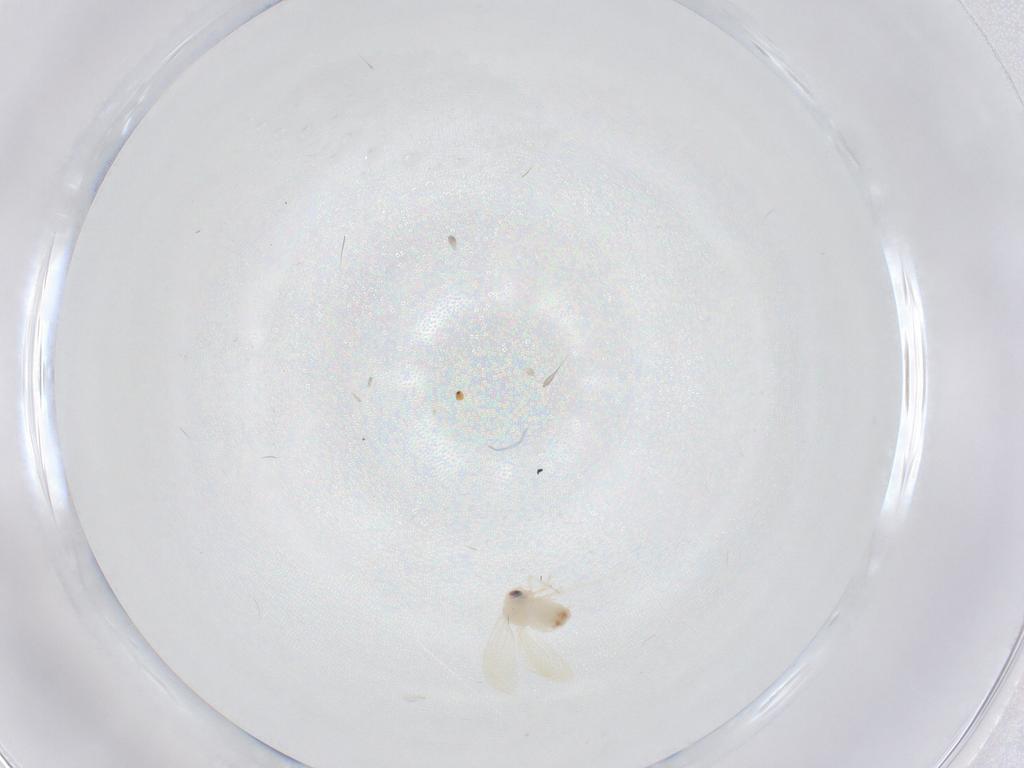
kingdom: Animalia
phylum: Arthropoda
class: Insecta
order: Hemiptera
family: Aleyrodidae
